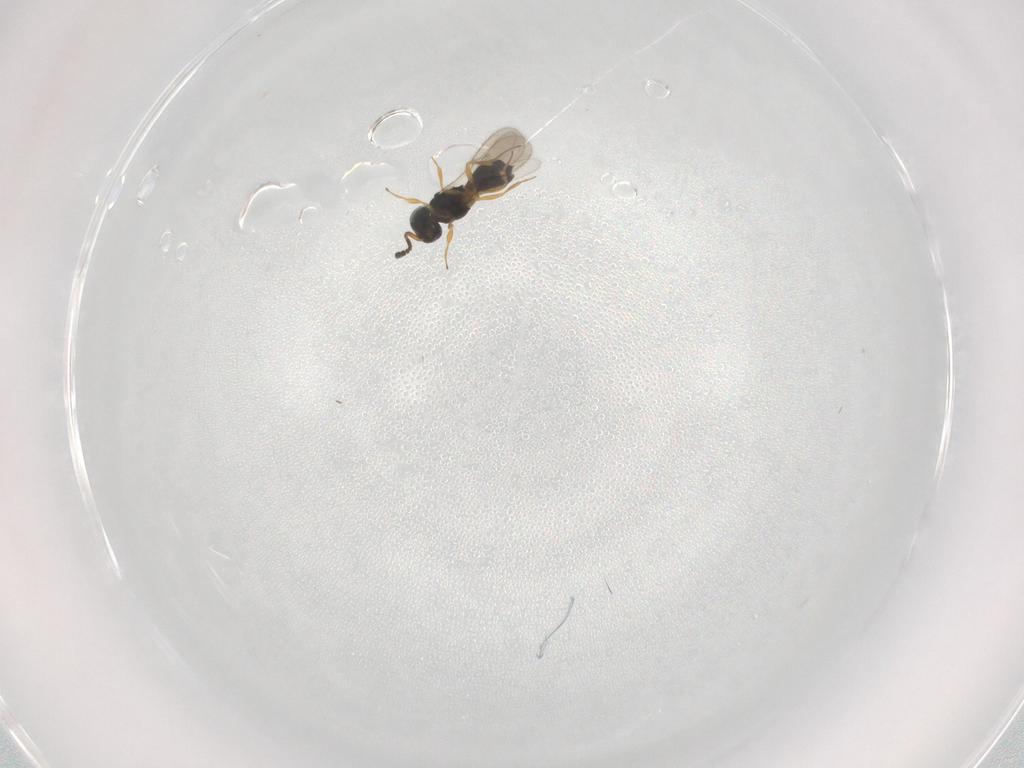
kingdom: Animalia
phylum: Arthropoda
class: Insecta
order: Hymenoptera
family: Scelionidae
